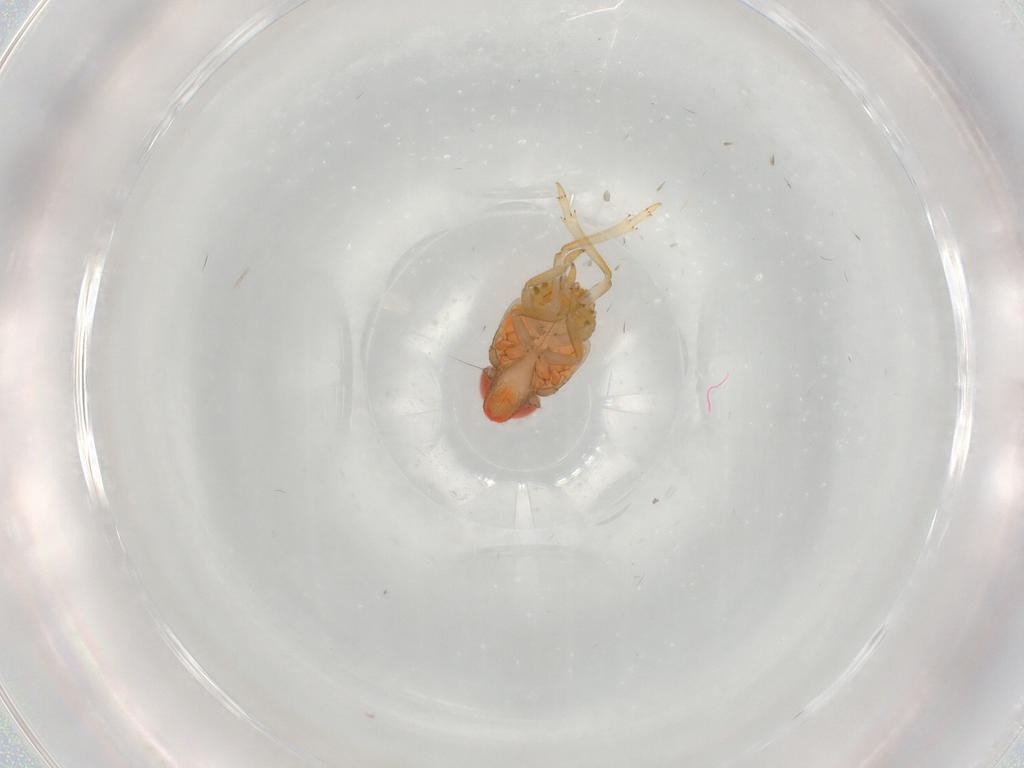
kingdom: Animalia
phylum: Arthropoda
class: Insecta
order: Hemiptera
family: Issidae
